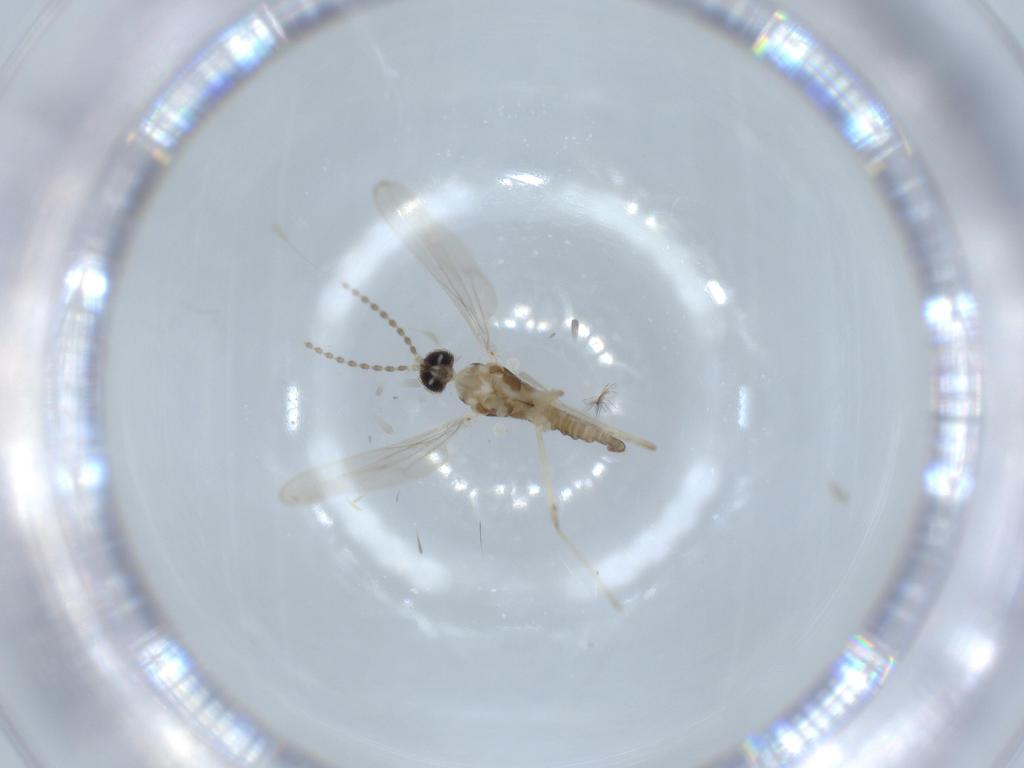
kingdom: Animalia
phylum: Arthropoda
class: Insecta
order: Diptera
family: Cecidomyiidae
